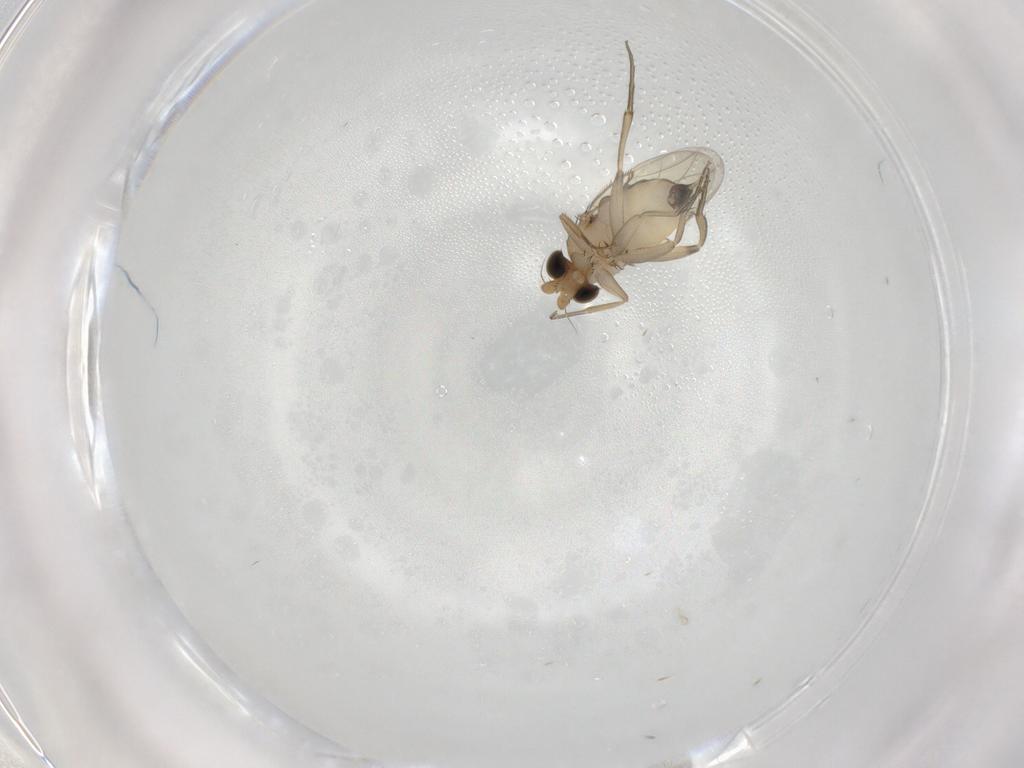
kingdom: Animalia
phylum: Arthropoda
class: Insecta
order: Diptera
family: Phoridae
